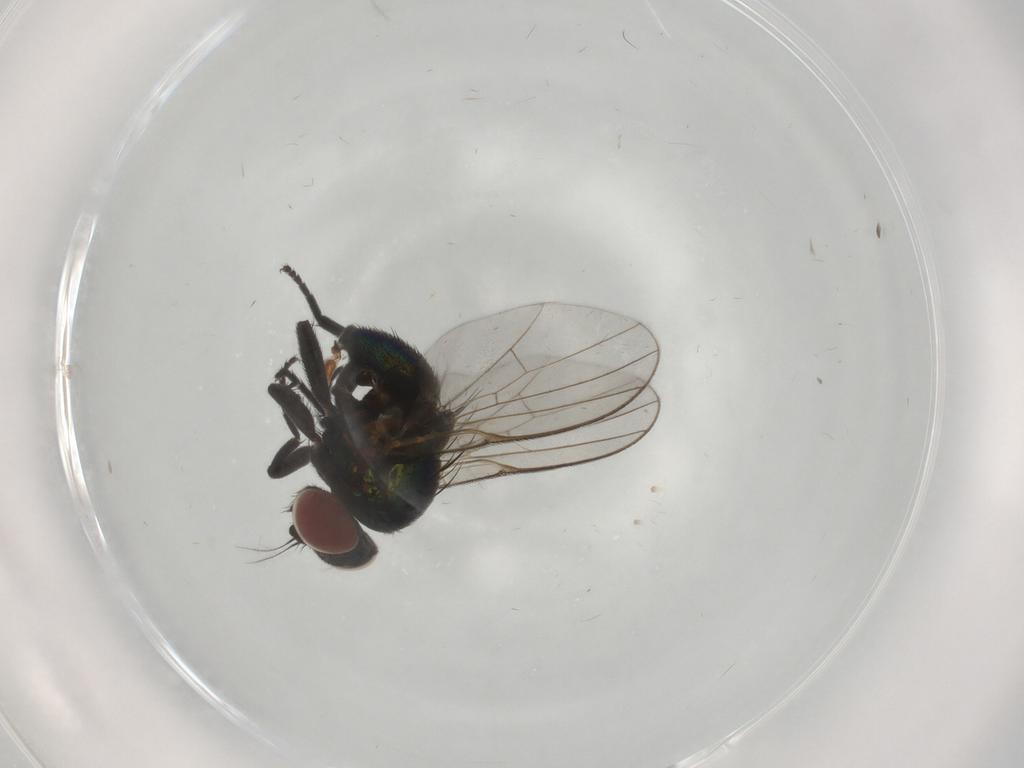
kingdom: Animalia
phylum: Arthropoda
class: Insecta
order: Diptera
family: Agromyzidae
